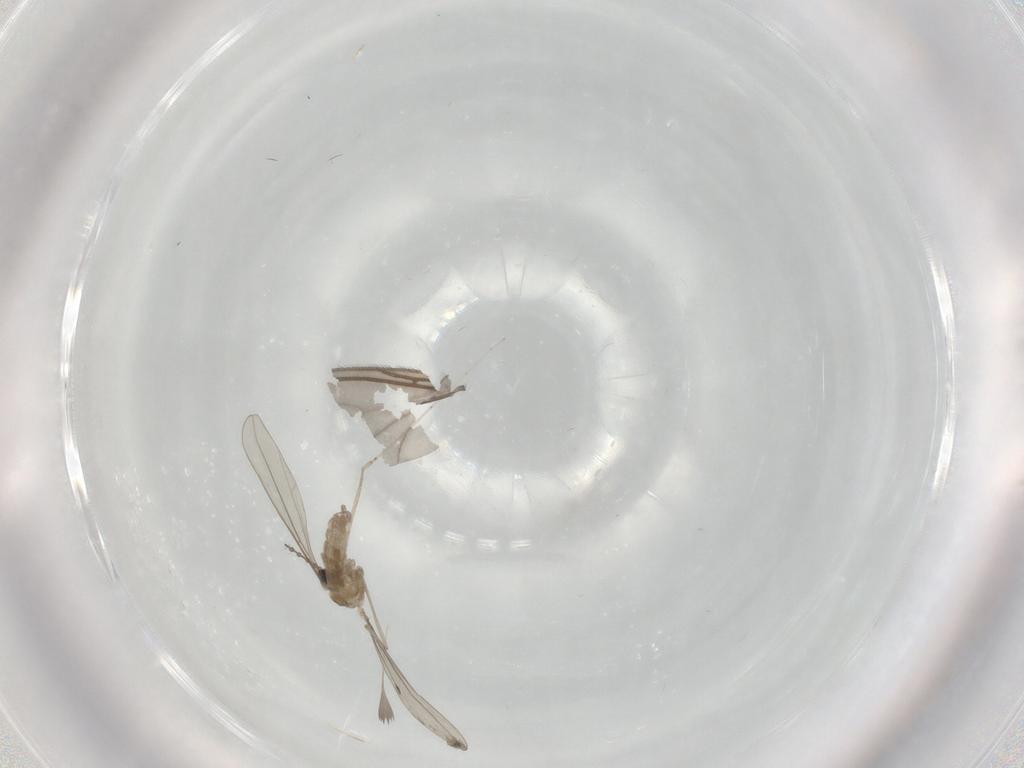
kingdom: Animalia
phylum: Arthropoda
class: Insecta
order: Diptera
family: Cecidomyiidae
